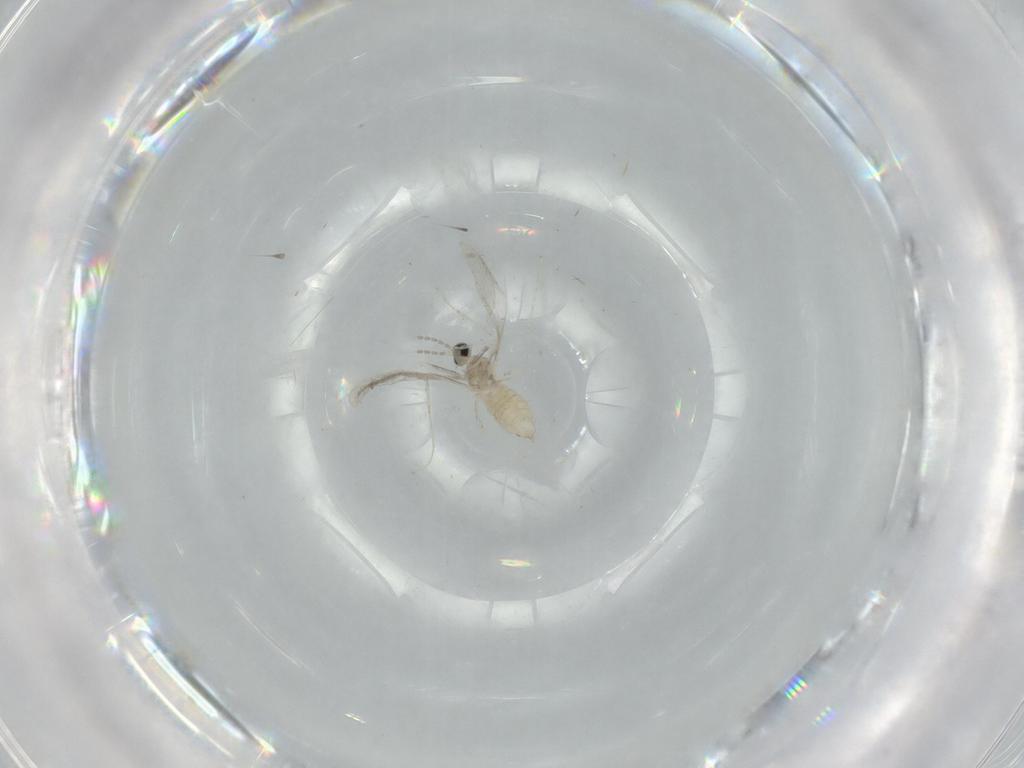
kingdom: Animalia
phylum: Arthropoda
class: Insecta
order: Diptera
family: Cecidomyiidae
